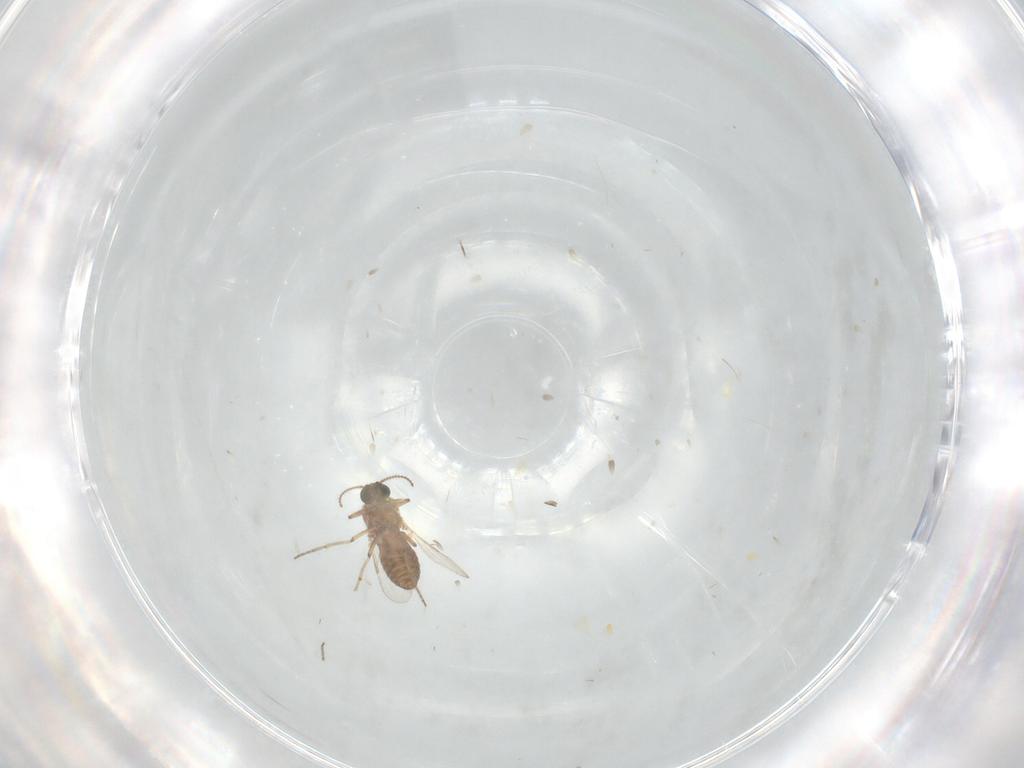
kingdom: Animalia
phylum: Arthropoda
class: Insecta
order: Diptera
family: Ceratopogonidae
